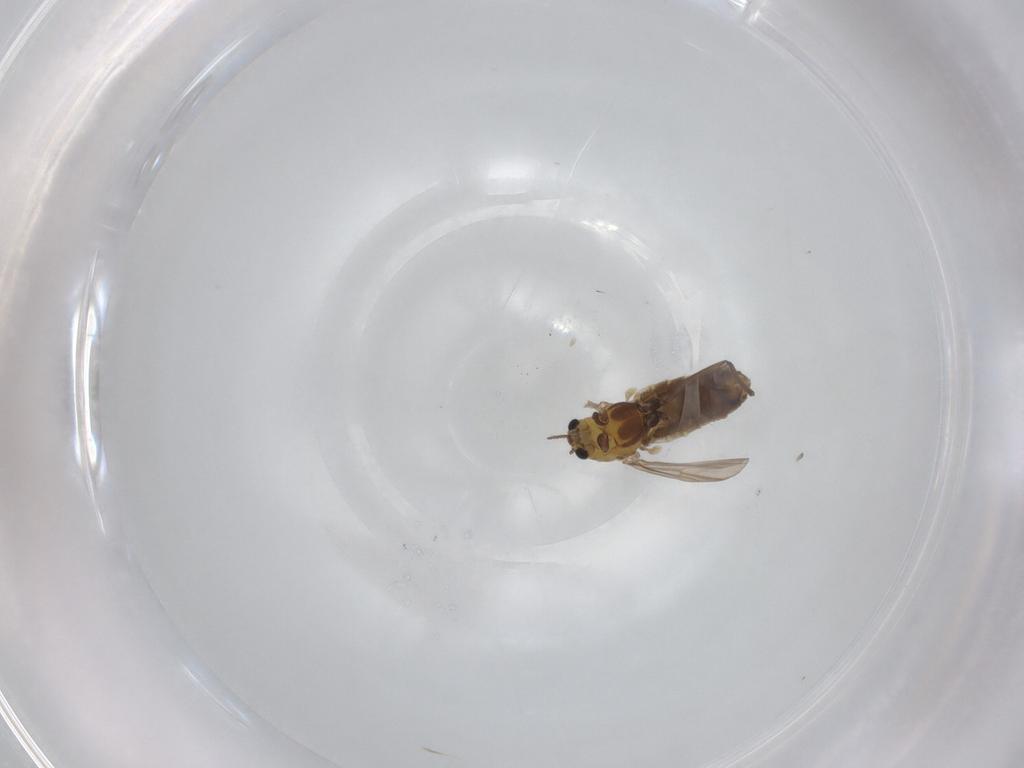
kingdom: Animalia
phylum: Arthropoda
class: Insecta
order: Diptera
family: Chironomidae
